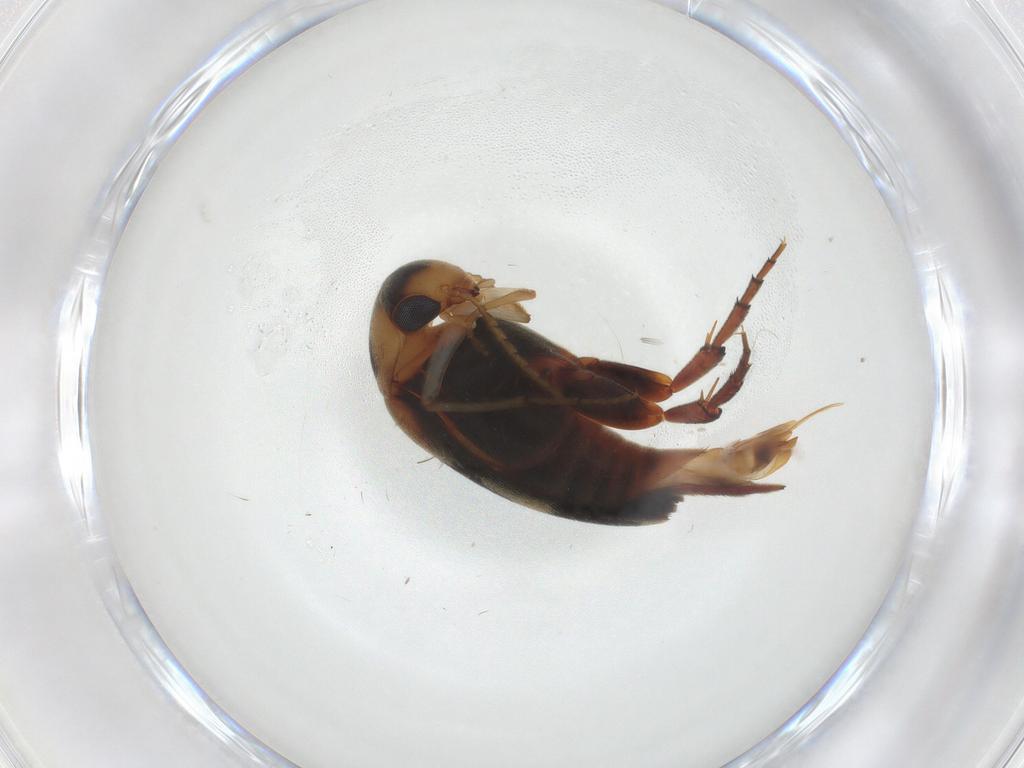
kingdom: Animalia
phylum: Arthropoda
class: Insecta
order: Coleoptera
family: Mordellidae
